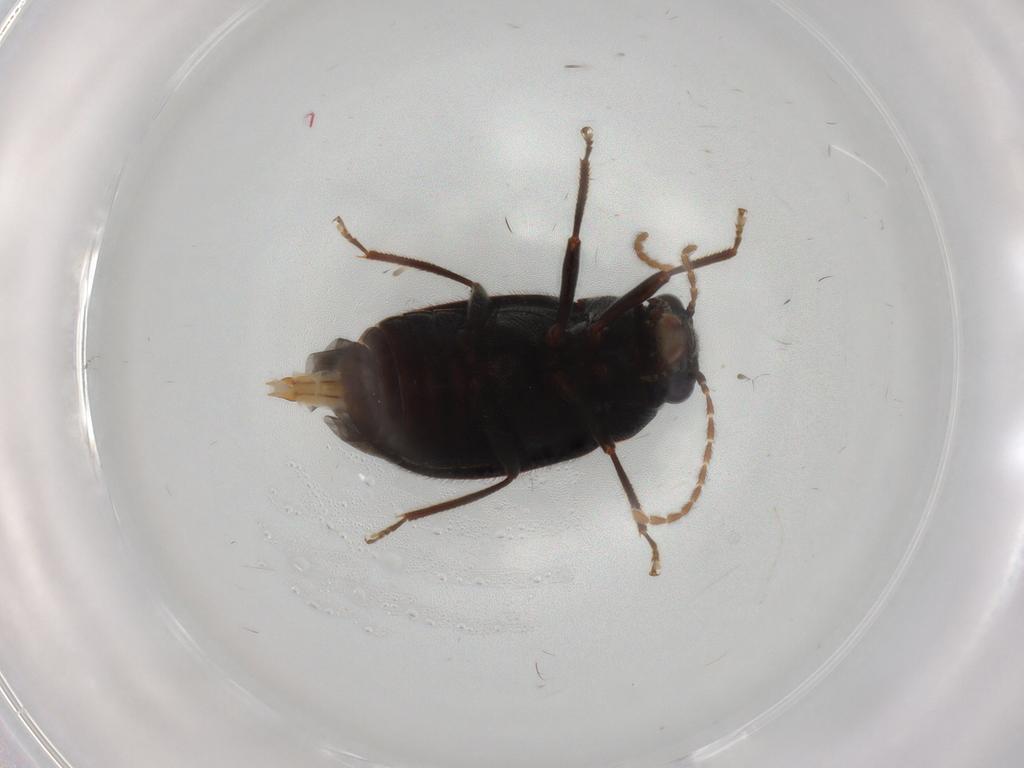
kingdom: Animalia
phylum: Arthropoda
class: Insecta
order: Coleoptera
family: Ptilodactylidae
